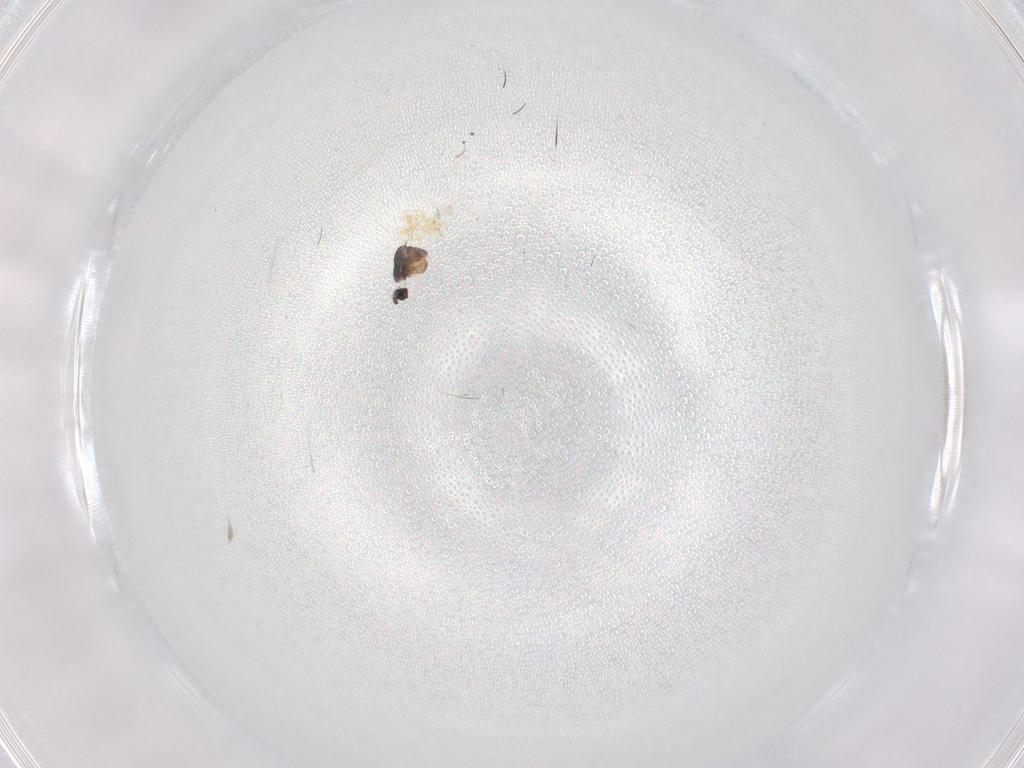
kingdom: Animalia
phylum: Arthropoda
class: Insecta
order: Diptera
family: Dolichopodidae
